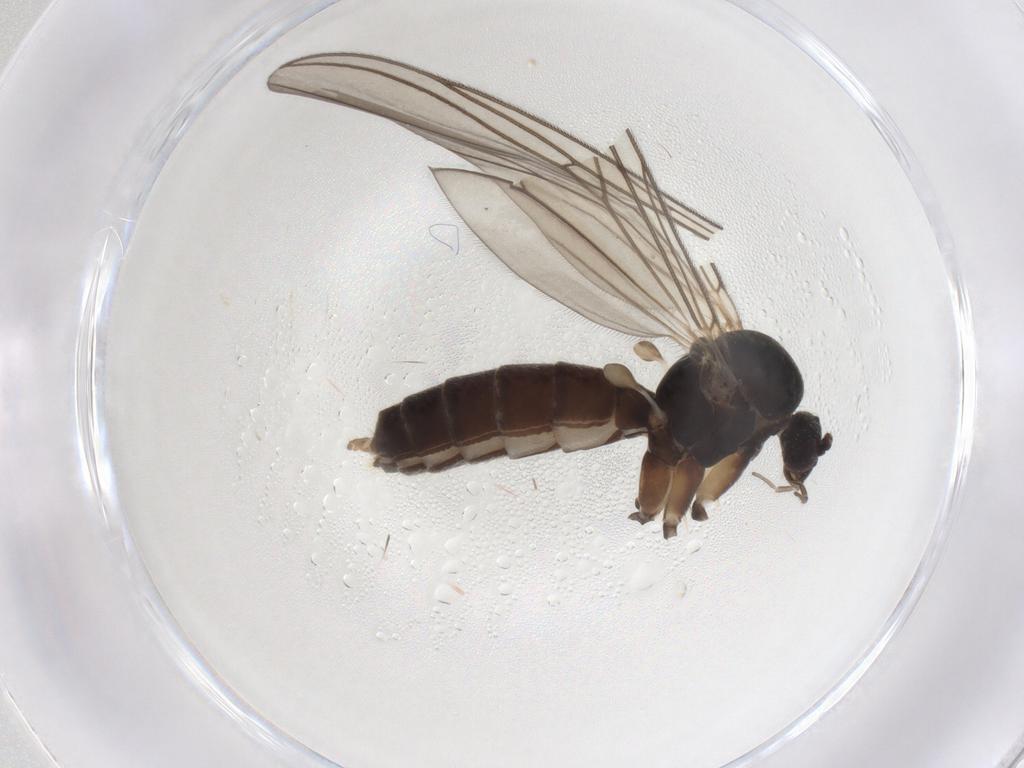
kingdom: Animalia
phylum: Arthropoda
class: Insecta
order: Diptera
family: Mycetophilidae
